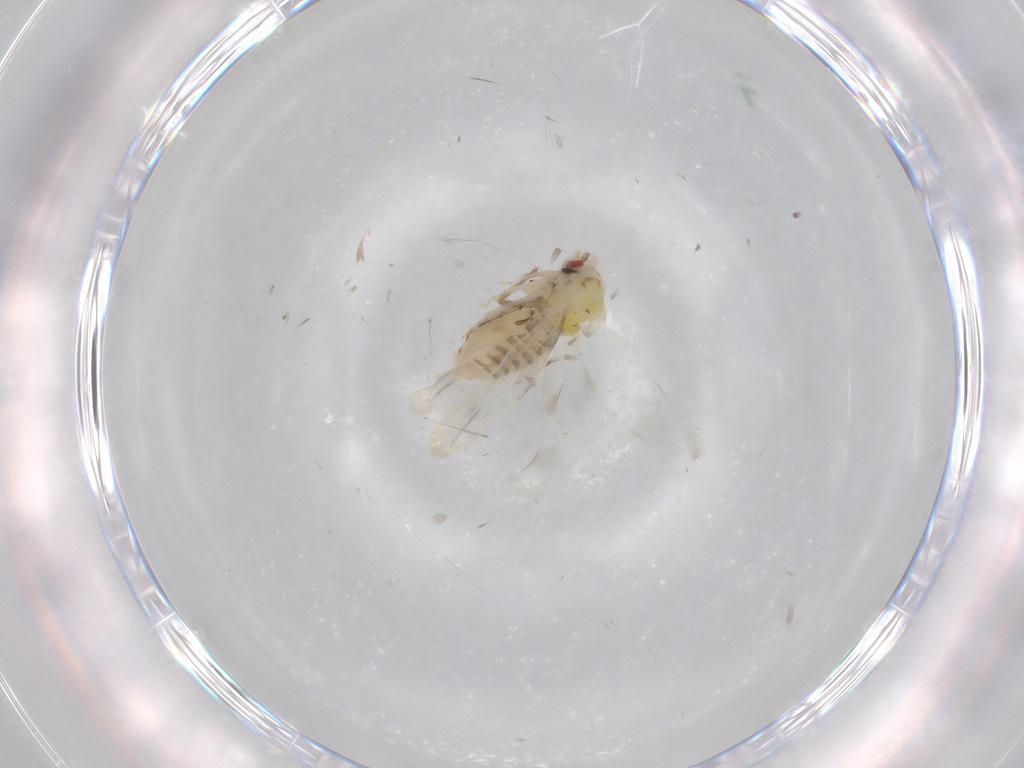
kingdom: Animalia
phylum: Arthropoda
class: Insecta
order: Hemiptera
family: Aleyrodidae
